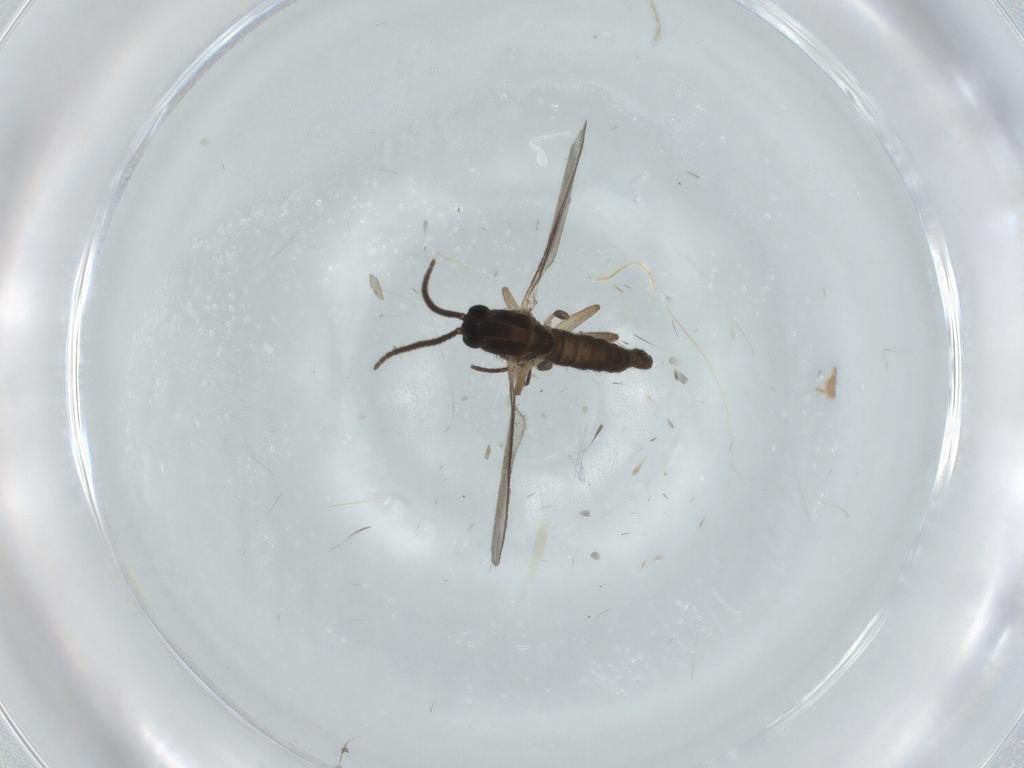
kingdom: Animalia
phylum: Arthropoda
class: Insecta
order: Diptera
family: Sciaridae
